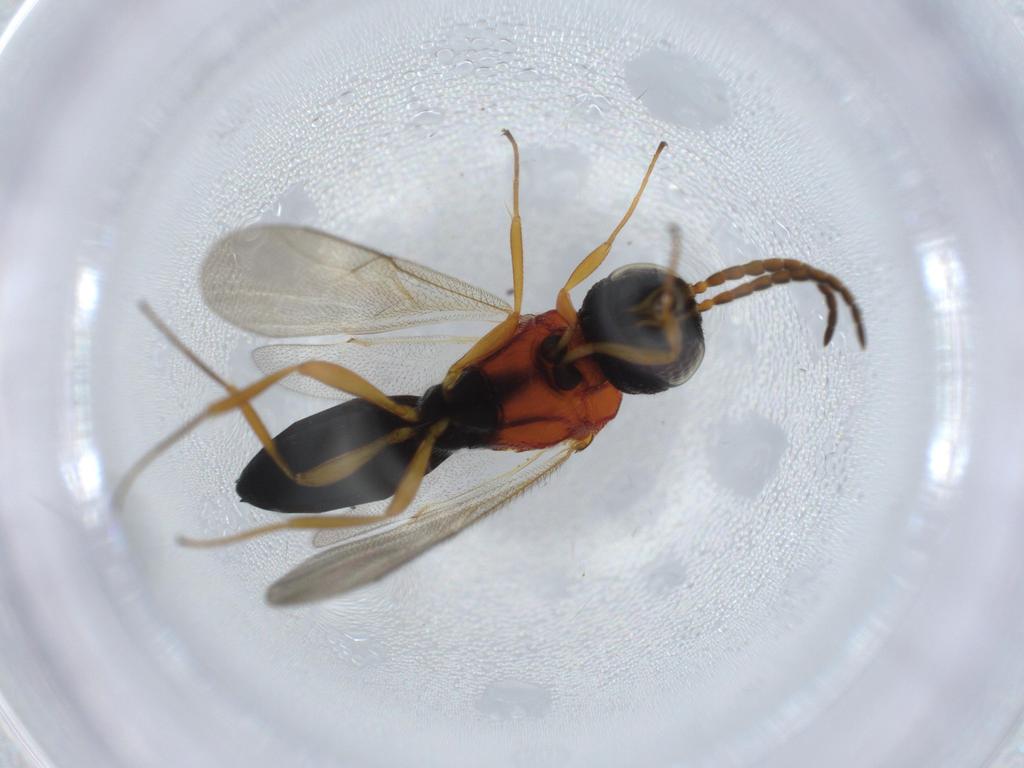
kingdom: Animalia
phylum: Arthropoda
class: Insecta
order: Hymenoptera
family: Scelionidae
